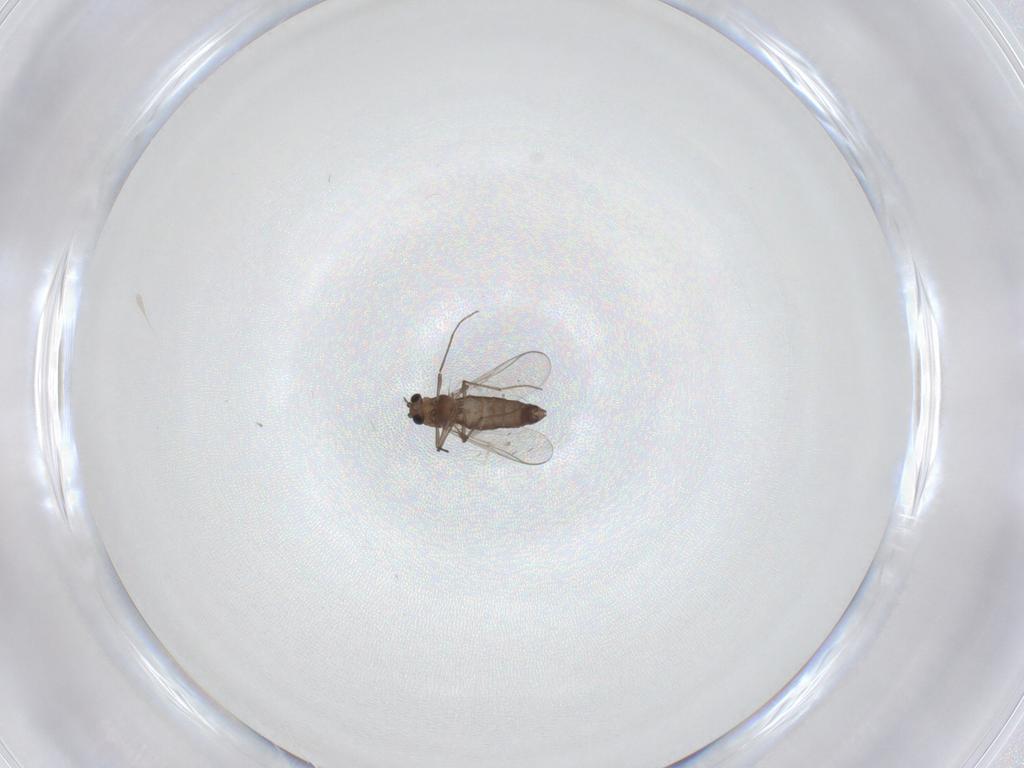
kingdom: Animalia
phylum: Arthropoda
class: Insecta
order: Diptera
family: Chironomidae
